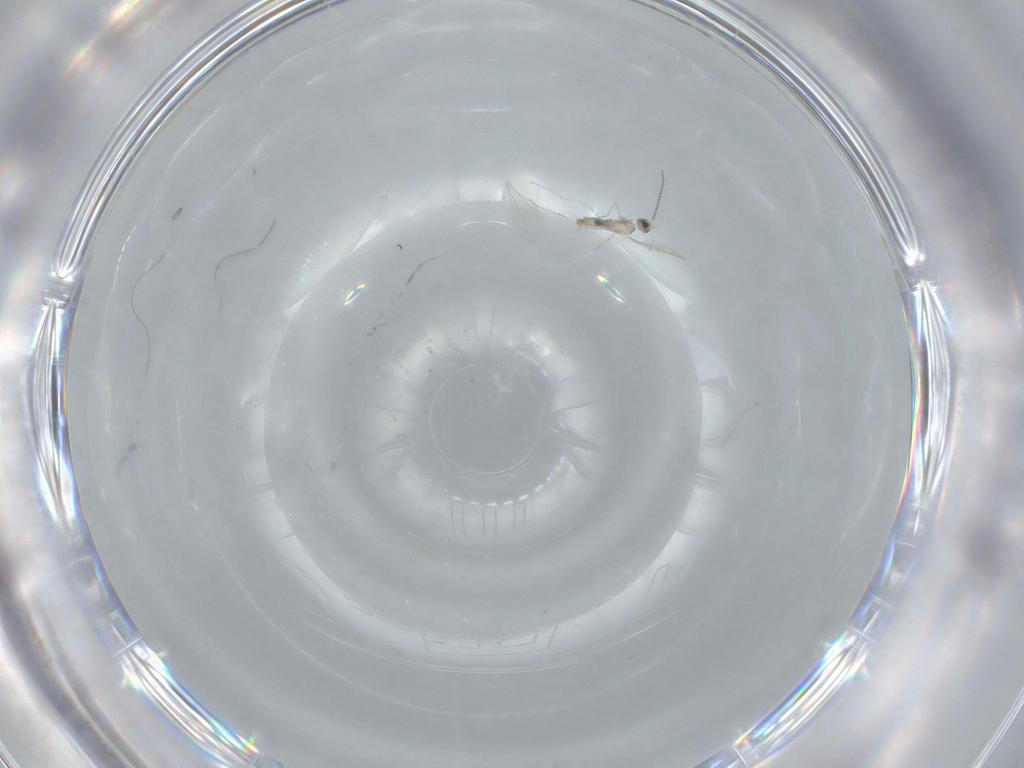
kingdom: Animalia
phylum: Arthropoda
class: Insecta
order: Diptera
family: Cecidomyiidae
